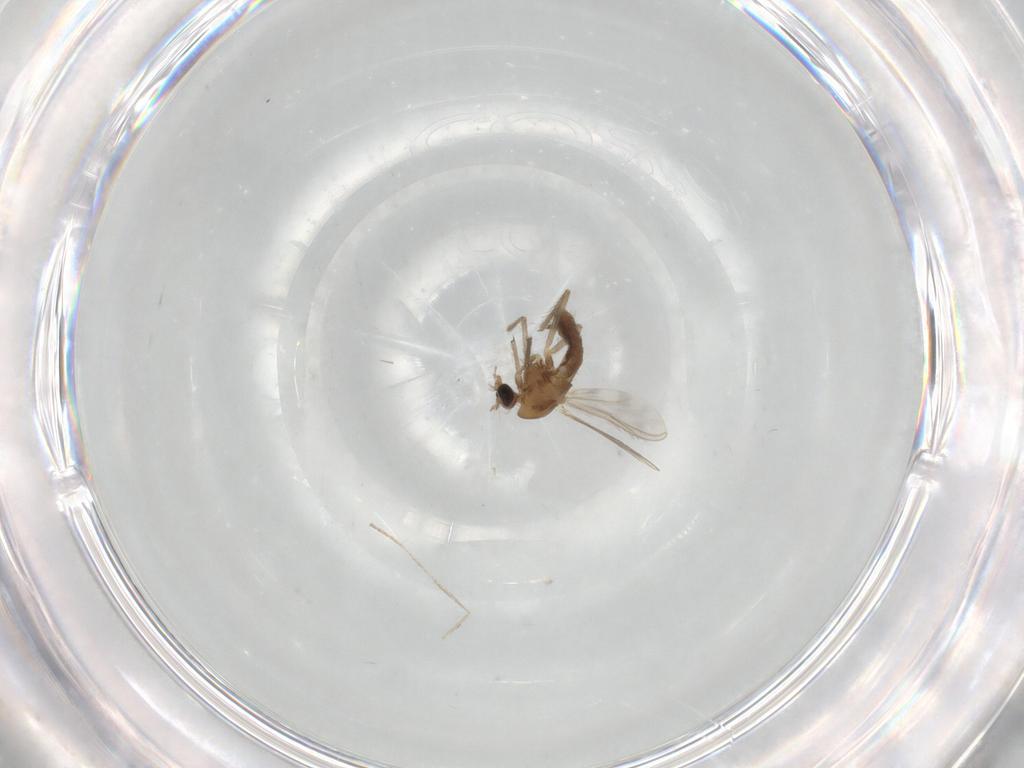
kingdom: Animalia
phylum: Arthropoda
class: Insecta
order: Diptera
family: Chironomidae
